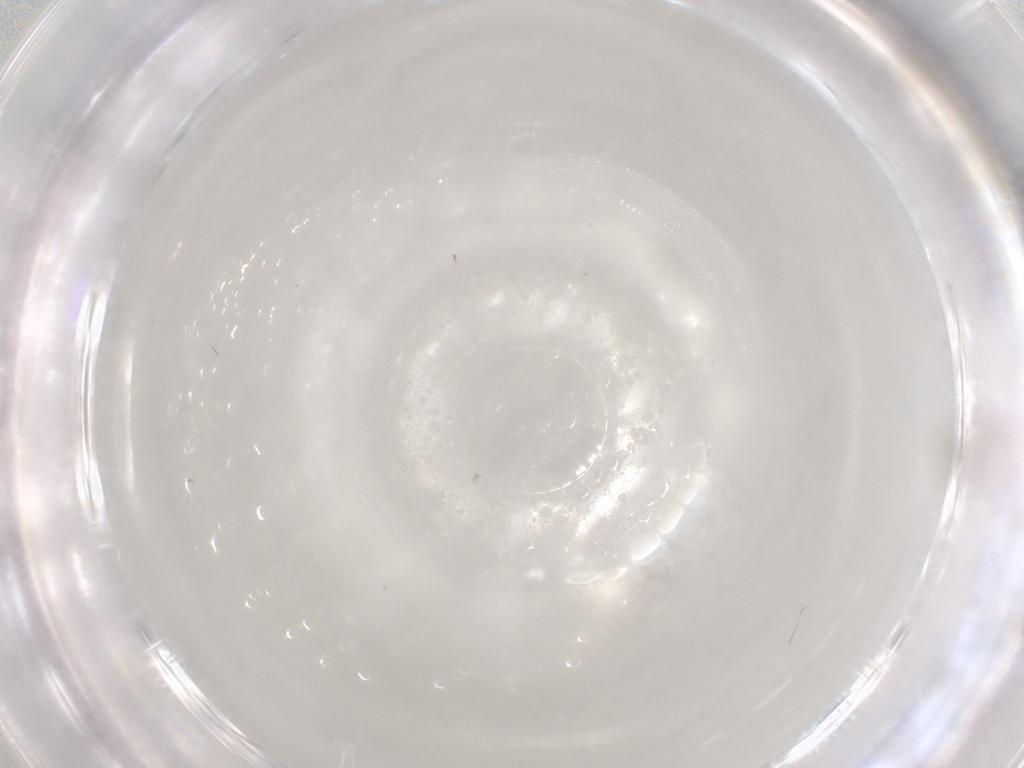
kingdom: Animalia
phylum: Arthropoda
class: Insecta
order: Diptera
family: Cecidomyiidae
